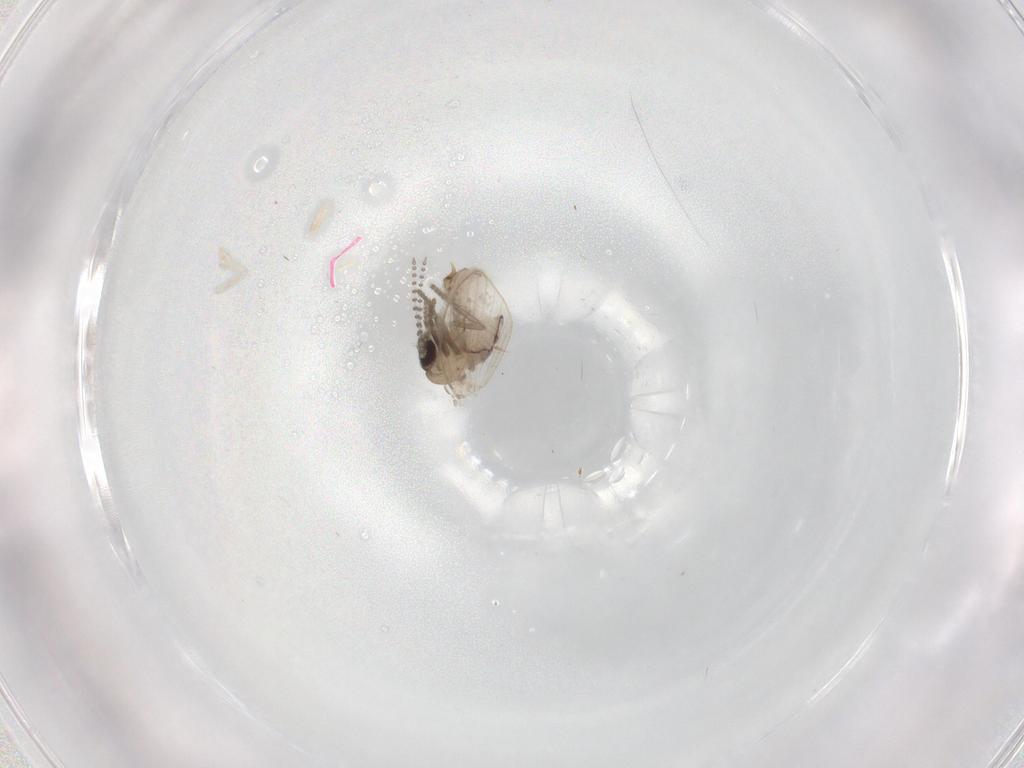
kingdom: Animalia
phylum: Arthropoda
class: Insecta
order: Diptera
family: Psychodidae
